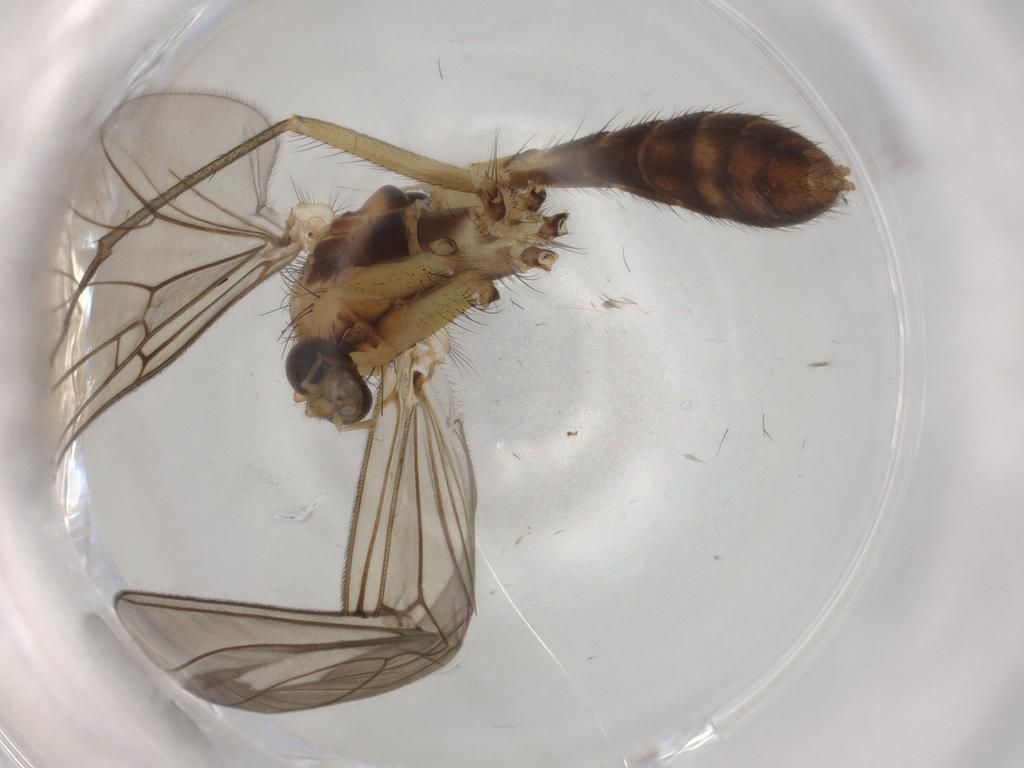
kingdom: Animalia
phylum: Arthropoda
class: Insecta
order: Diptera
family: Mycetophilidae
